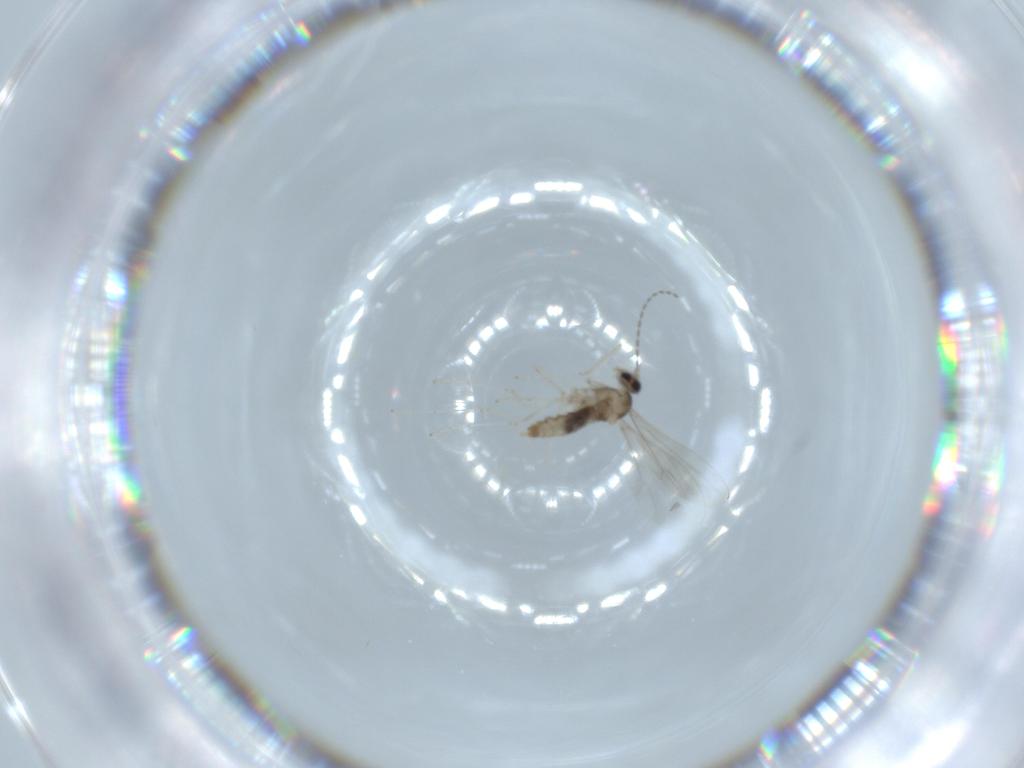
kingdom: Animalia
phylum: Arthropoda
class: Insecta
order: Diptera
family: Cecidomyiidae
